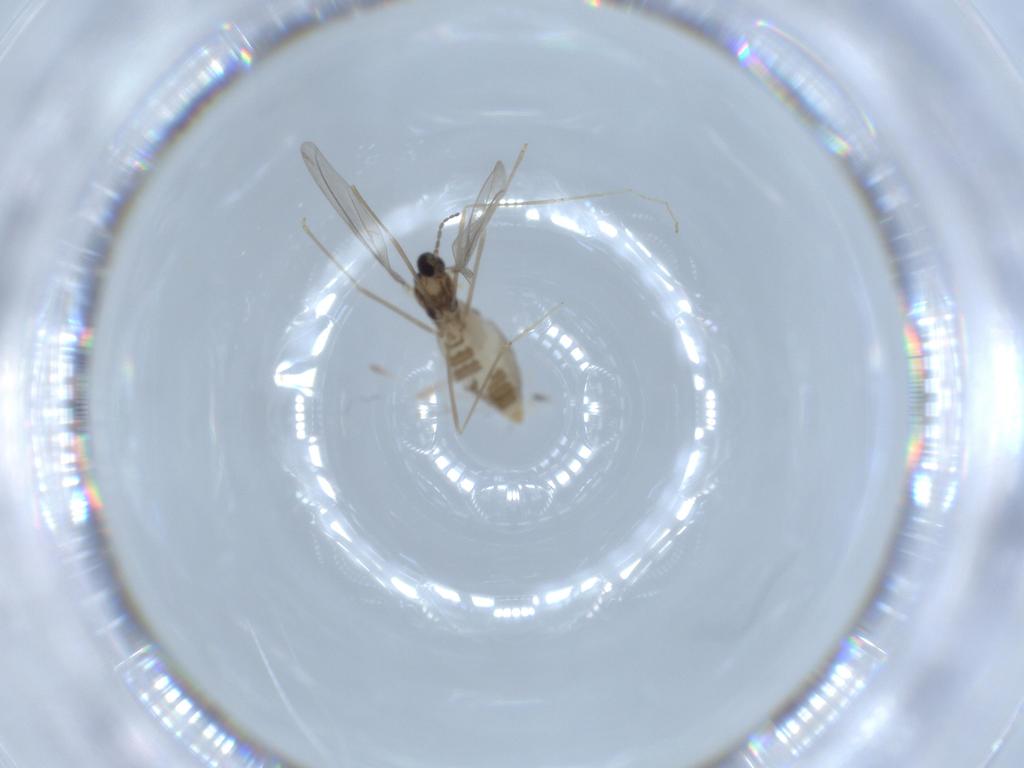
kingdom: Animalia
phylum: Arthropoda
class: Insecta
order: Diptera
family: Cecidomyiidae
